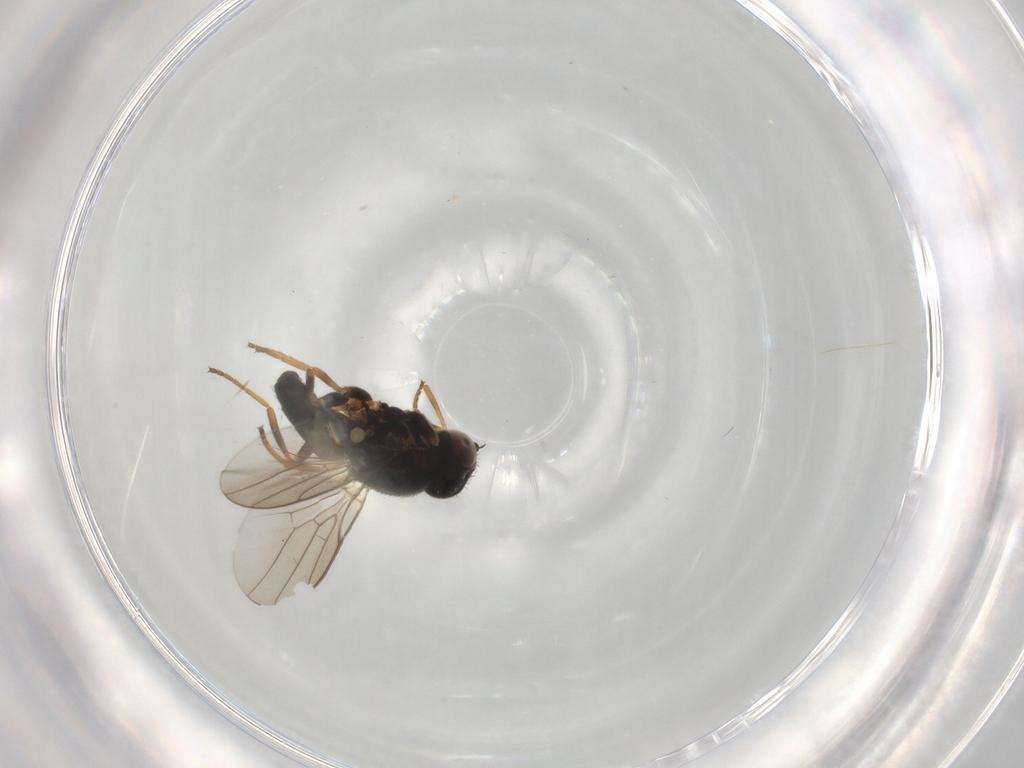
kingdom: Animalia
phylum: Arthropoda
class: Insecta
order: Diptera
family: Chloropidae
